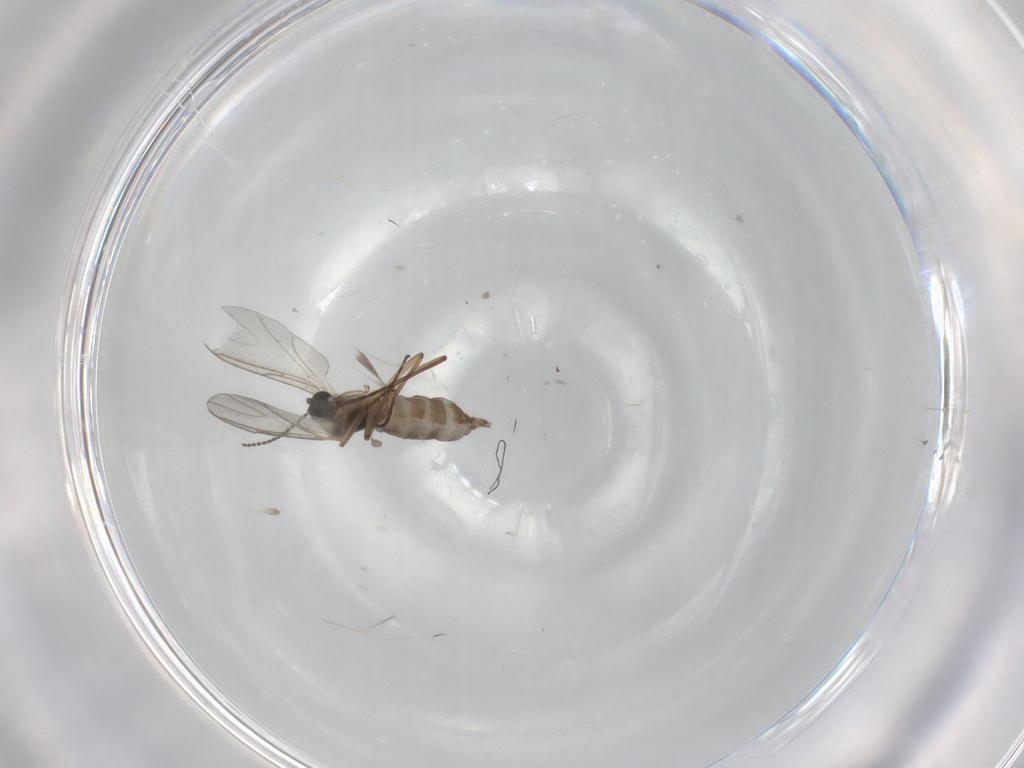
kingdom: Animalia
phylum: Arthropoda
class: Insecta
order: Diptera
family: Sciaridae
